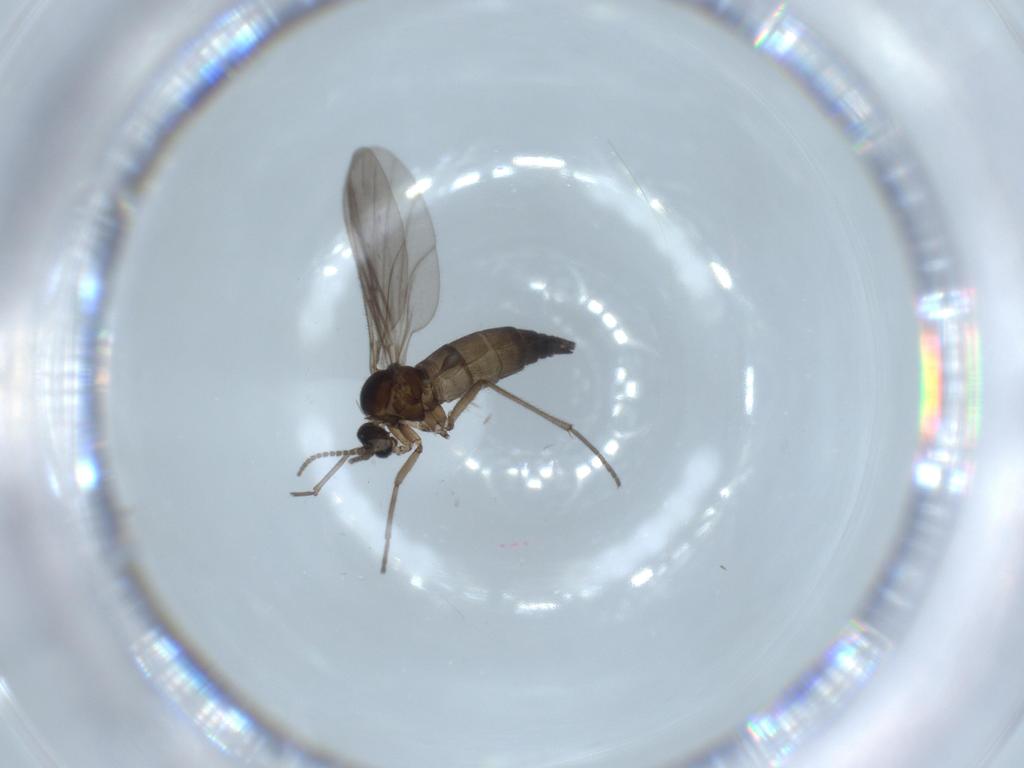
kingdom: Animalia
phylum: Arthropoda
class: Insecta
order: Diptera
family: Sciaridae
